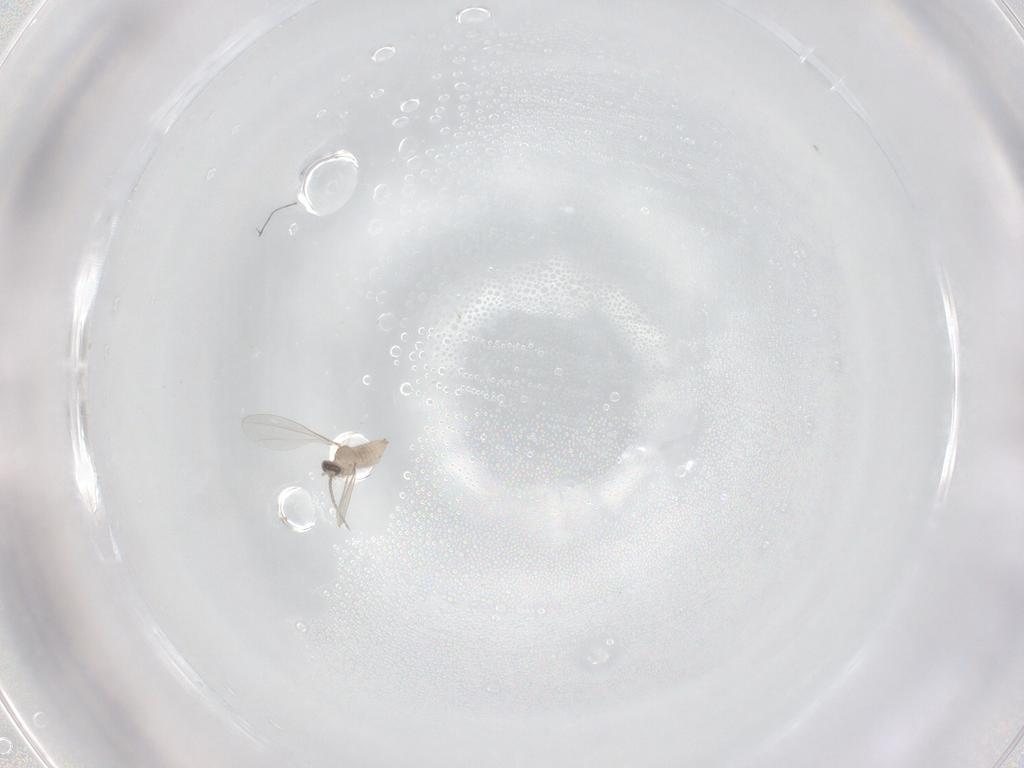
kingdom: Animalia
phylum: Arthropoda
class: Insecta
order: Diptera
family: Cecidomyiidae
